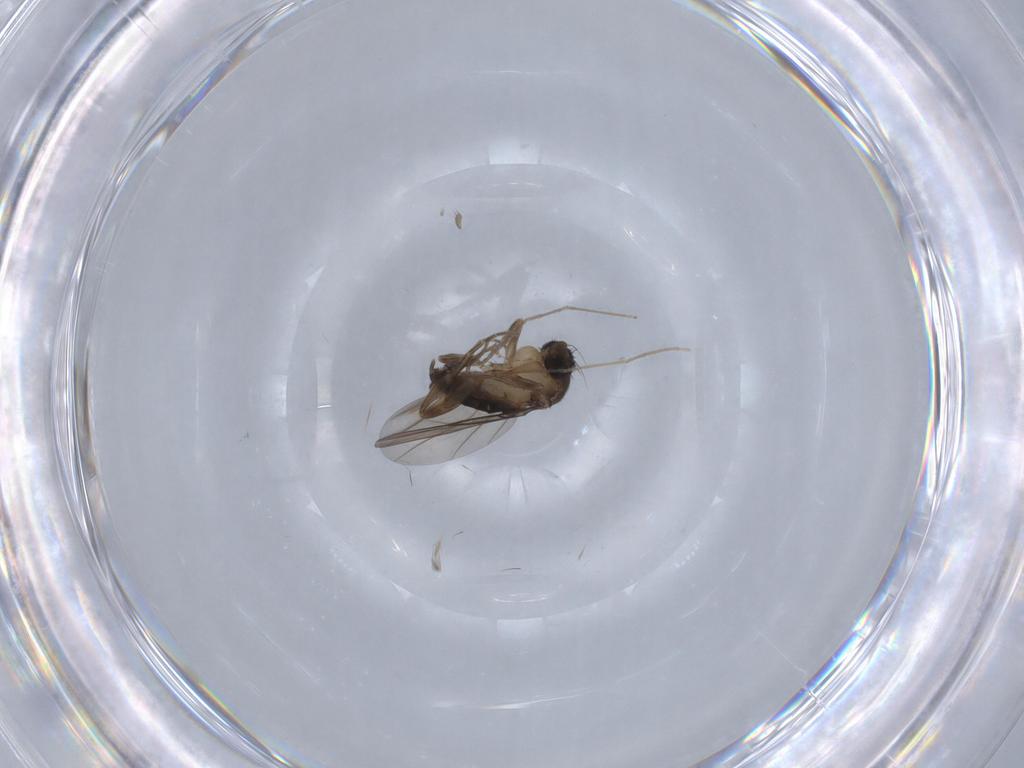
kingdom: Animalia
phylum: Arthropoda
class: Insecta
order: Diptera
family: Phoridae
